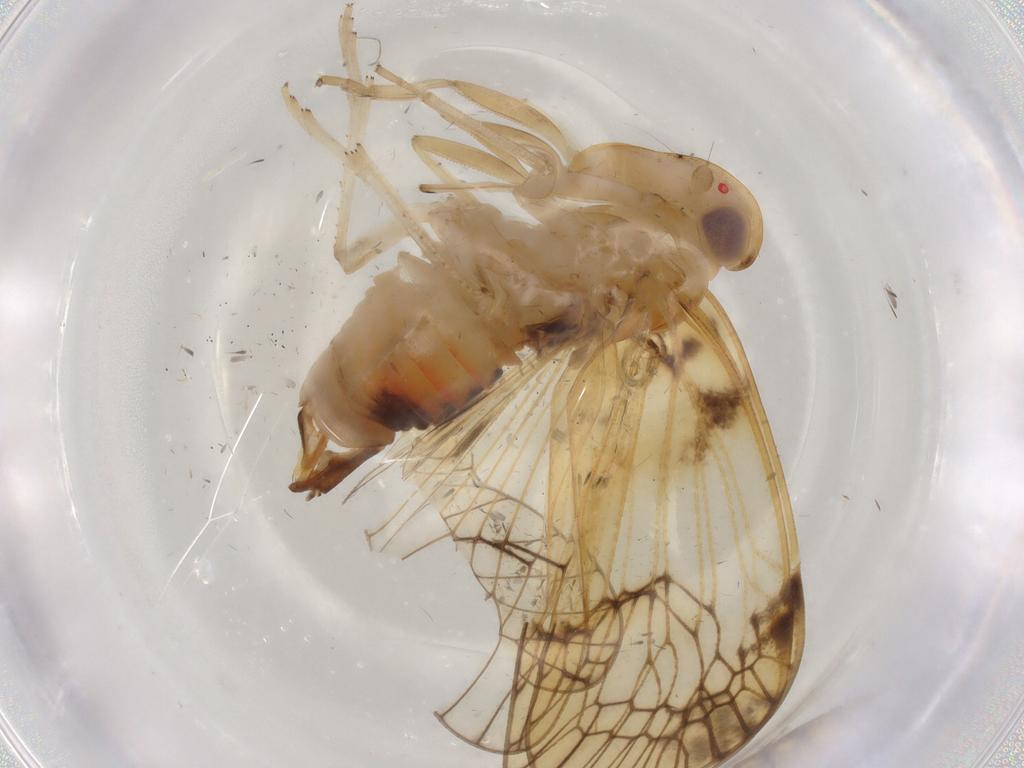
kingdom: Animalia
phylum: Arthropoda
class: Insecta
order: Hemiptera
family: Cixiidae
